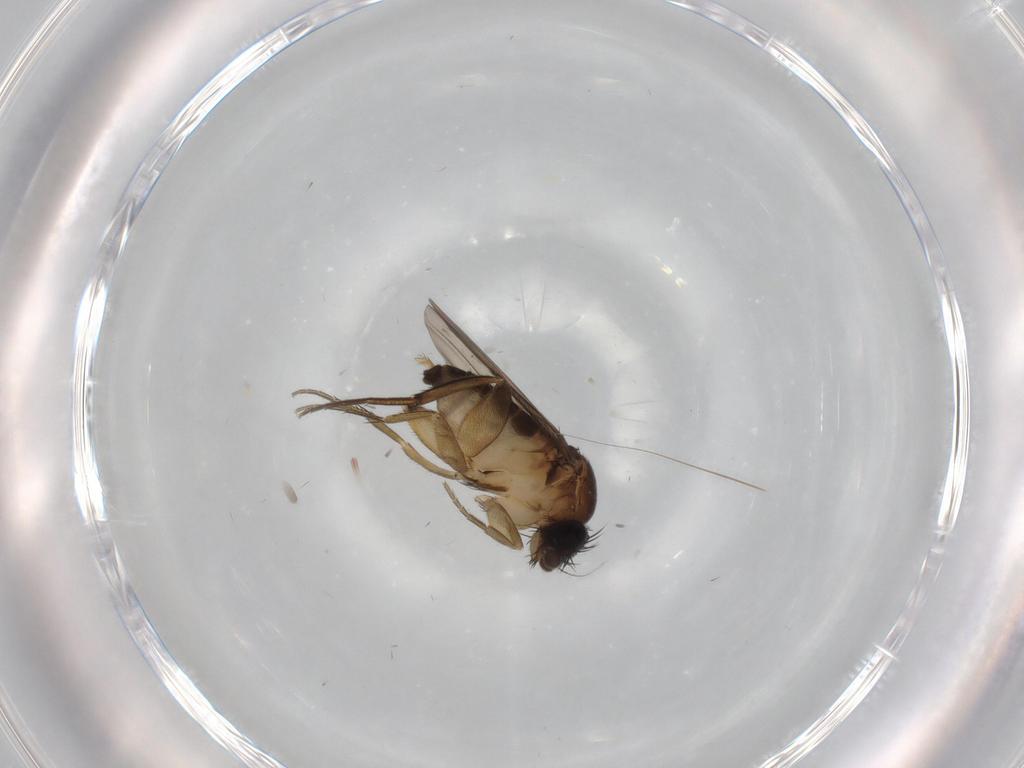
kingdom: Animalia
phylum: Arthropoda
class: Insecta
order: Diptera
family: Phoridae
